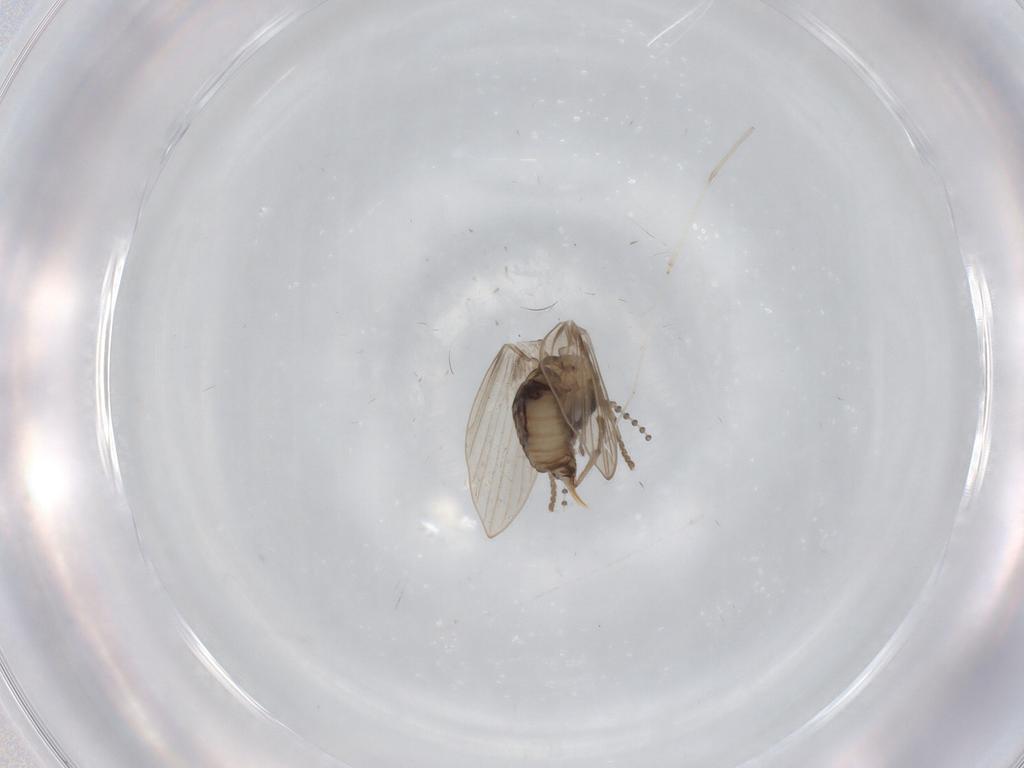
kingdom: Animalia
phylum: Arthropoda
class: Insecta
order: Diptera
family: Psychodidae
